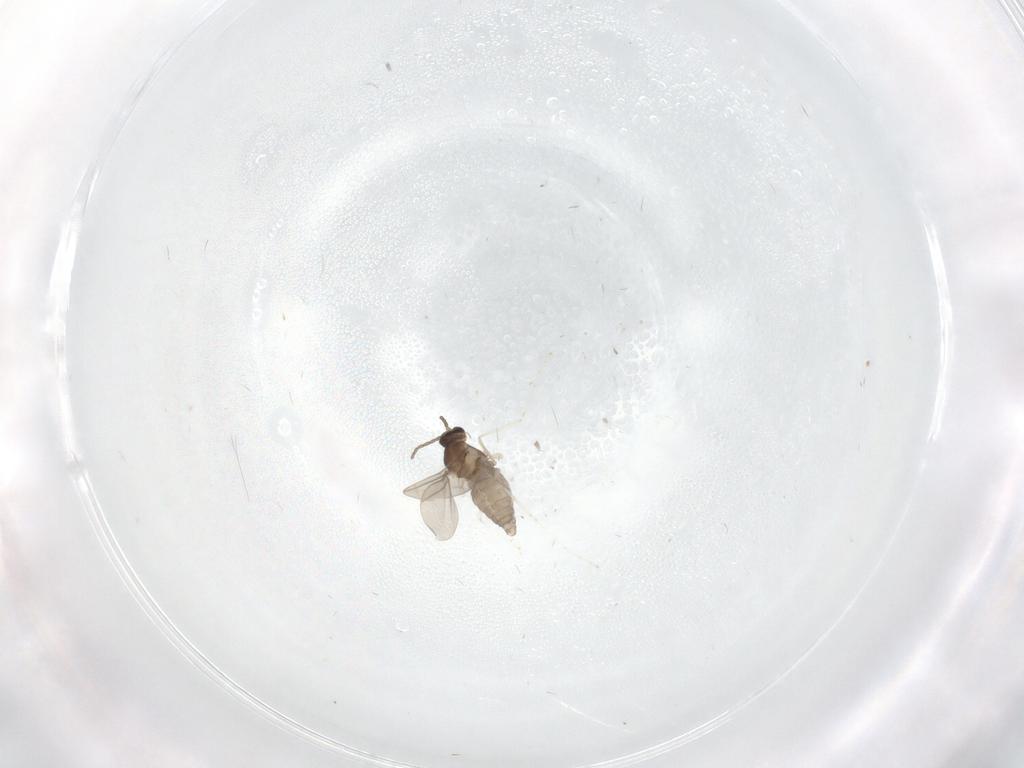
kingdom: Animalia
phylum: Arthropoda
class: Insecta
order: Diptera
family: Cecidomyiidae
